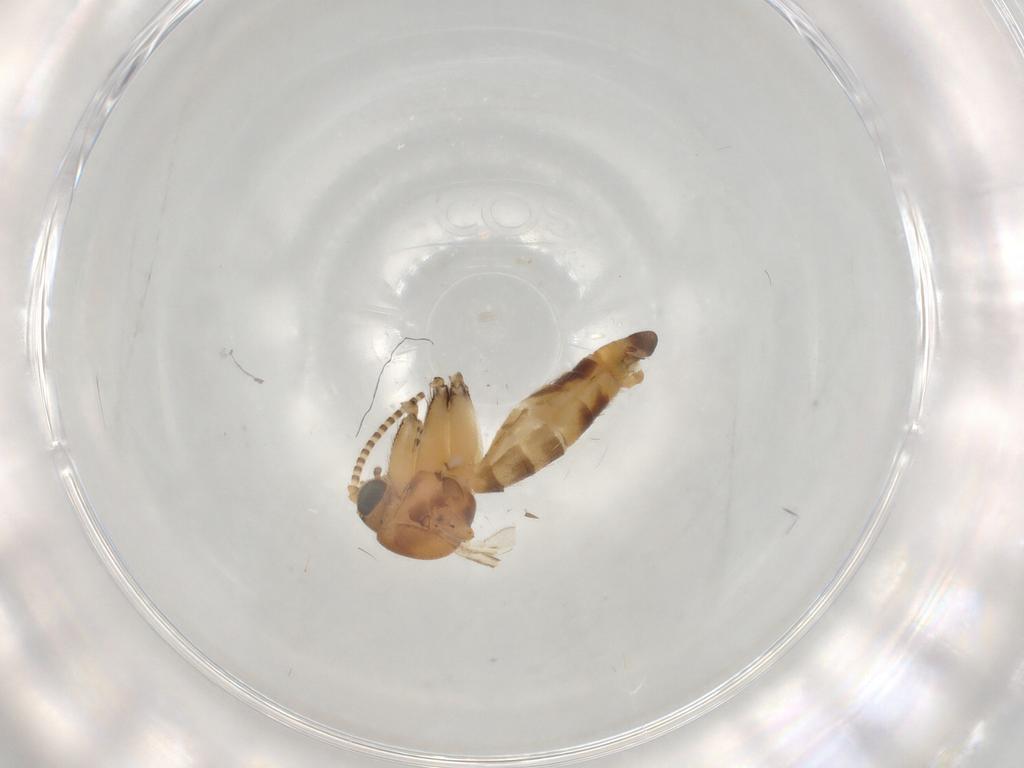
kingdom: Animalia
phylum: Arthropoda
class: Insecta
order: Diptera
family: Mycetophilidae
